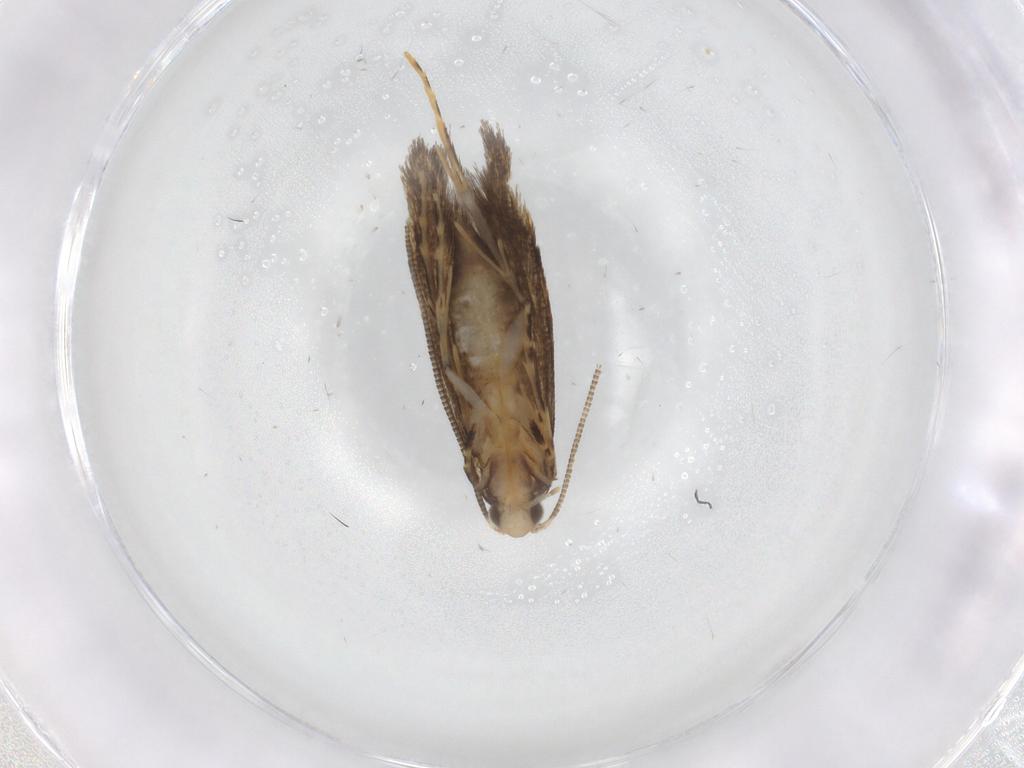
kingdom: Animalia
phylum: Arthropoda
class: Insecta
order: Lepidoptera
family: Tineidae
